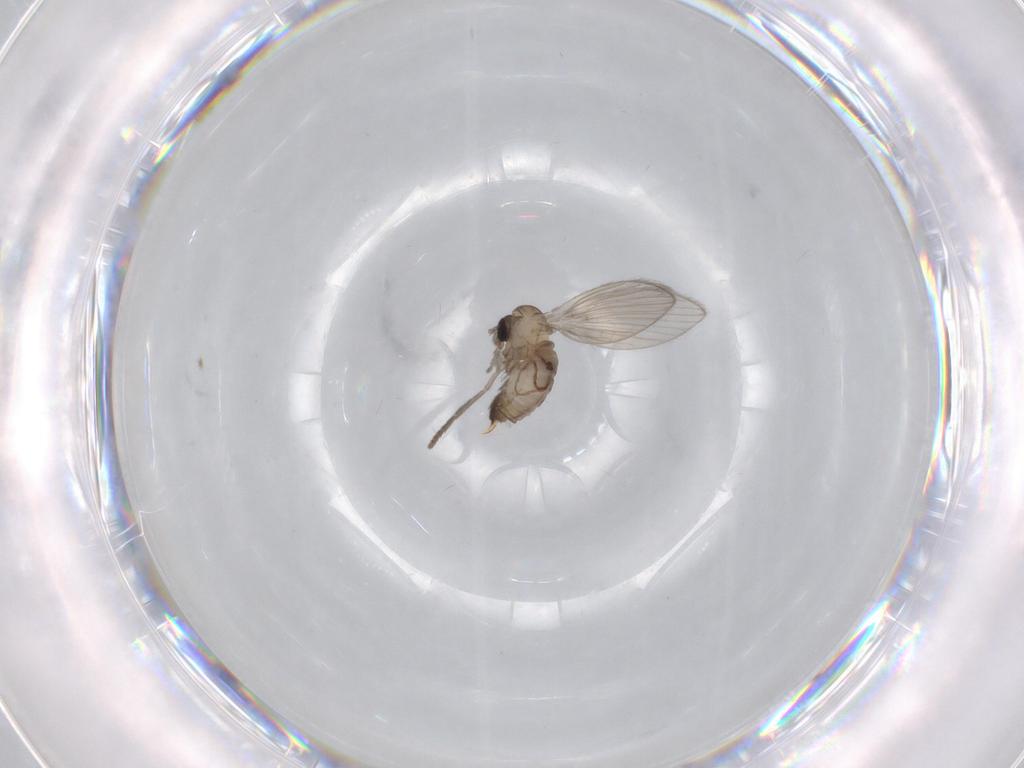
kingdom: Animalia
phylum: Arthropoda
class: Insecta
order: Diptera
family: Psychodidae
